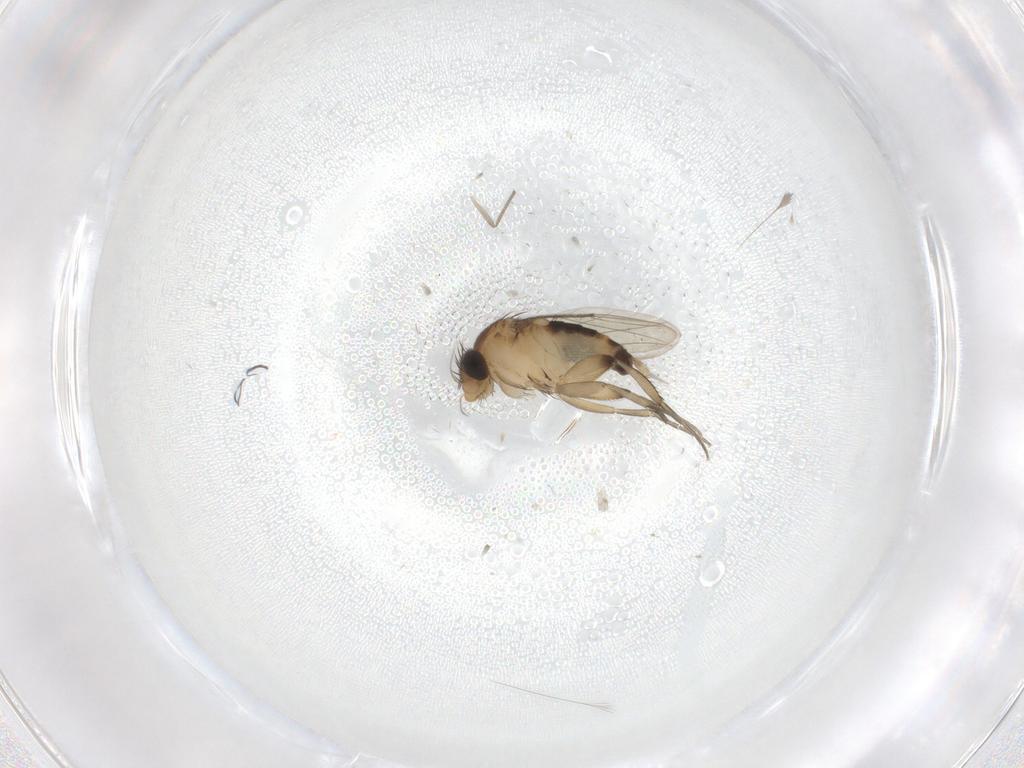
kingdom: Animalia
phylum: Arthropoda
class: Insecta
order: Diptera
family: Phoridae
